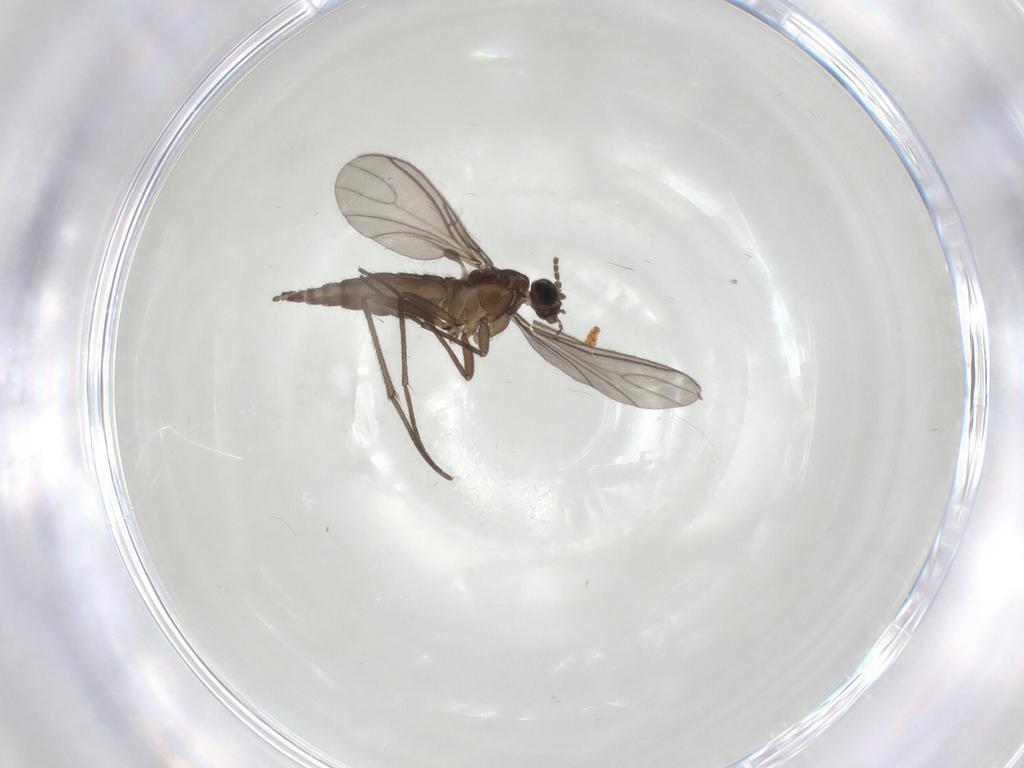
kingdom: Animalia
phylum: Arthropoda
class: Insecta
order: Diptera
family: Sciaridae
